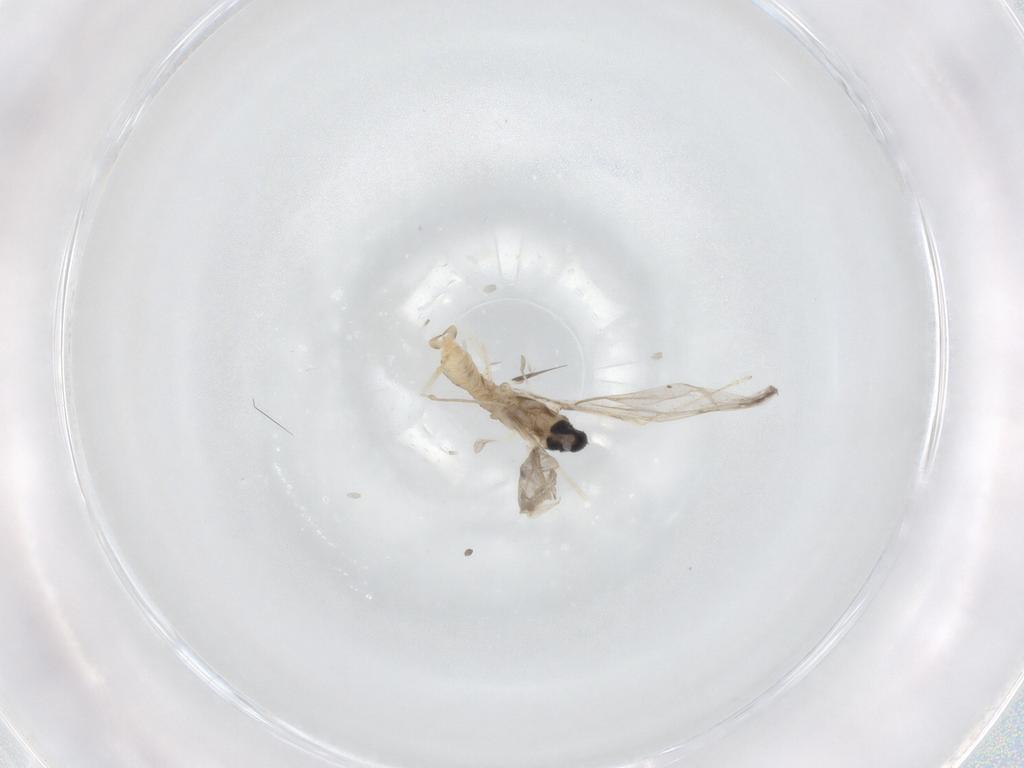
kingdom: Animalia
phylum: Arthropoda
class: Insecta
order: Diptera
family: Cecidomyiidae
